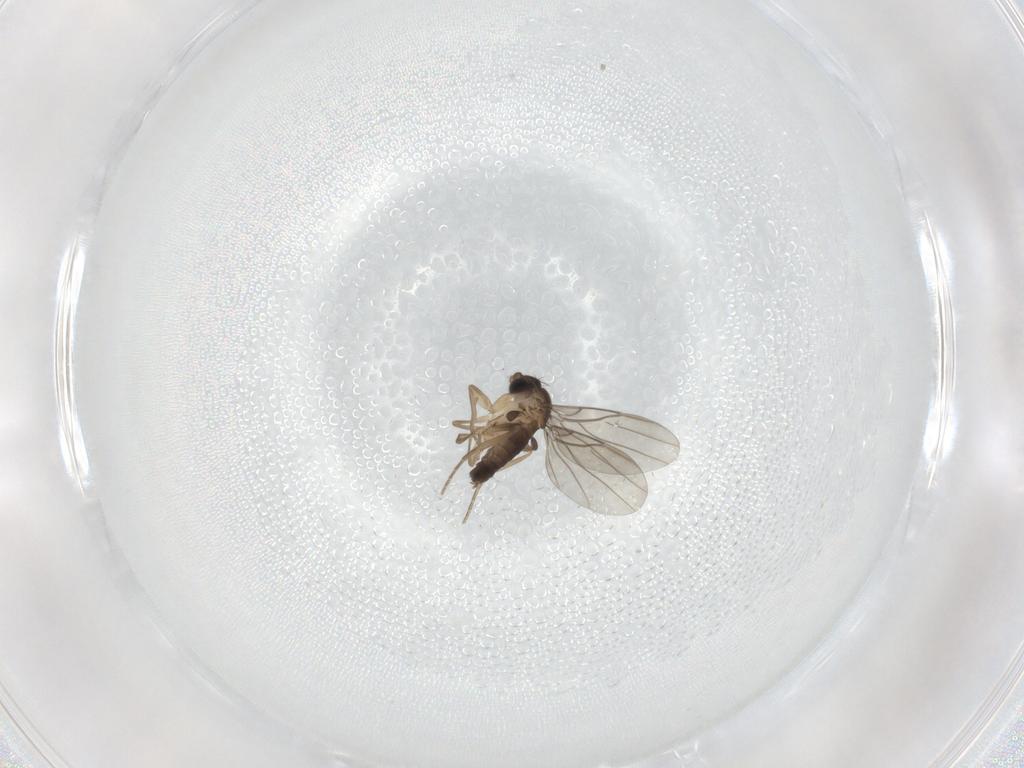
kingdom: Animalia
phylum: Arthropoda
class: Insecta
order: Diptera
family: Phoridae
